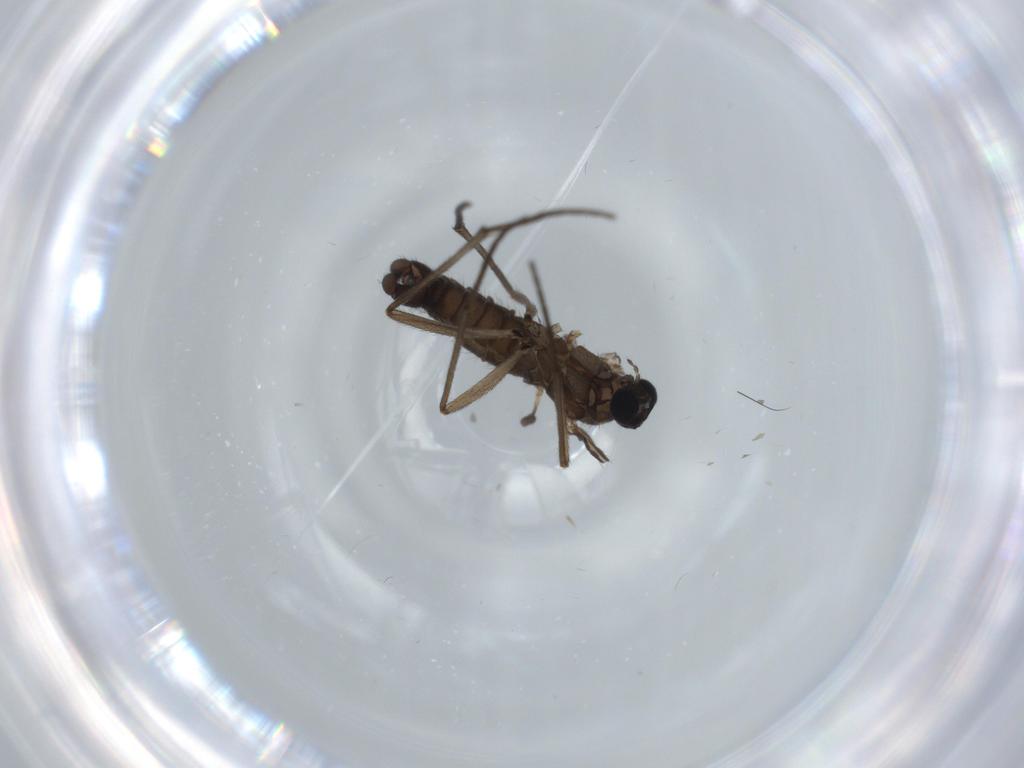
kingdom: Animalia
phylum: Arthropoda
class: Insecta
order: Diptera
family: Sciaridae
